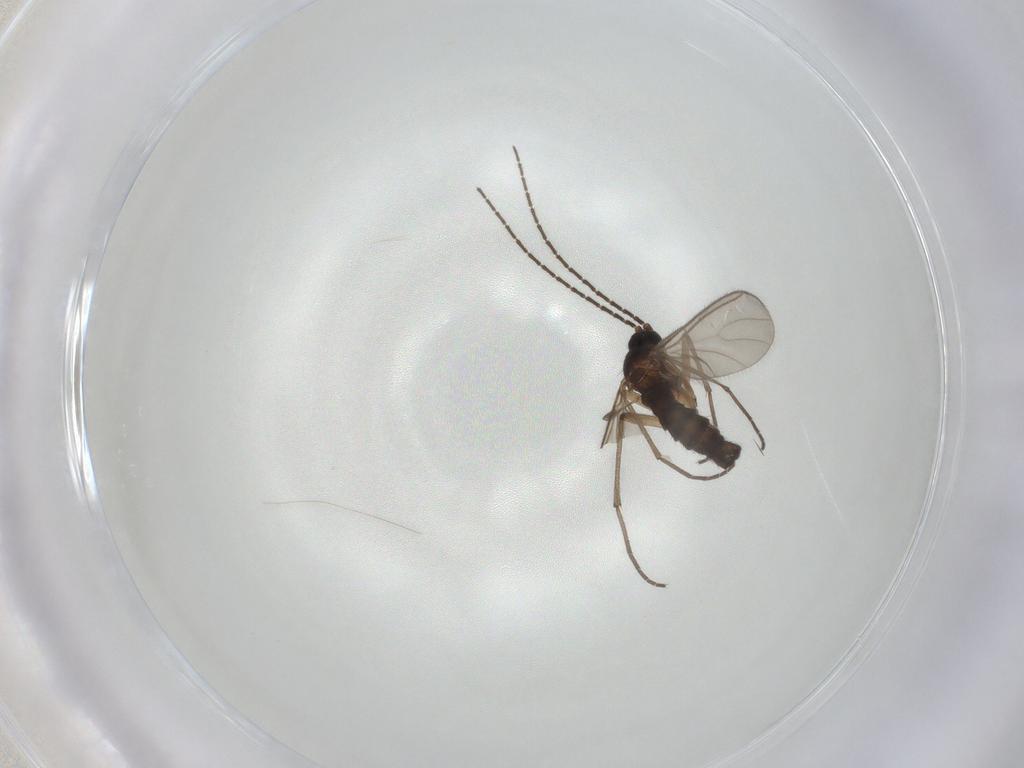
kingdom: Animalia
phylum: Arthropoda
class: Insecta
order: Diptera
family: Sciaridae
